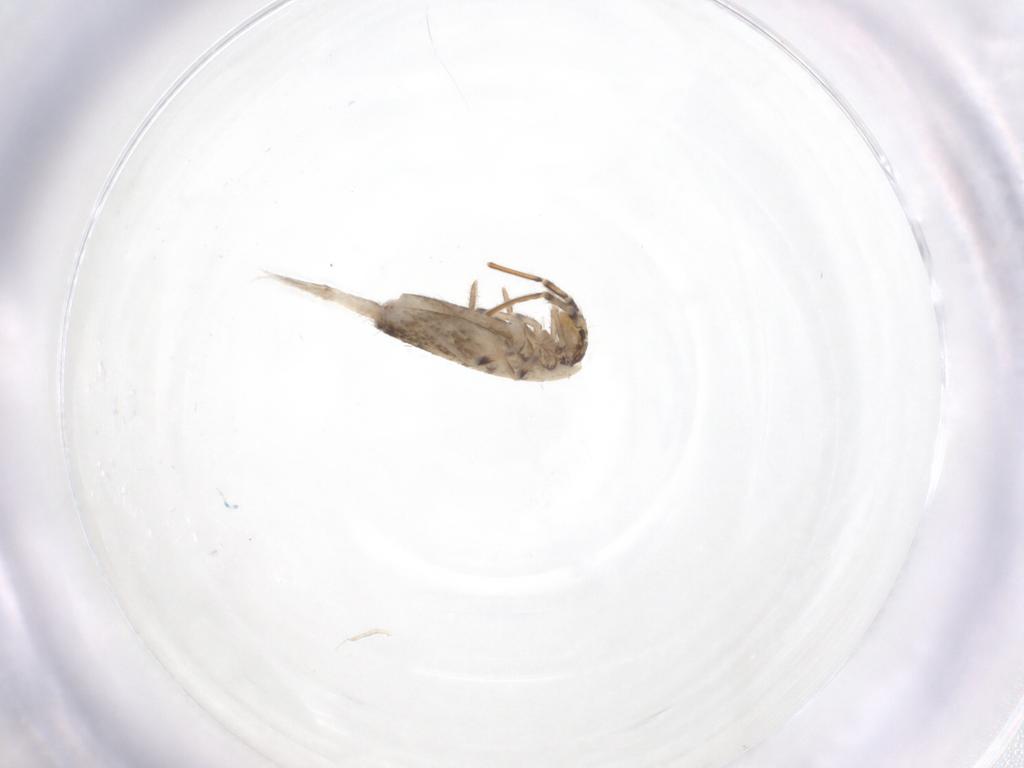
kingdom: Animalia
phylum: Arthropoda
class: Collembola
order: Entomobryomorpha
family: Entomobryidae
